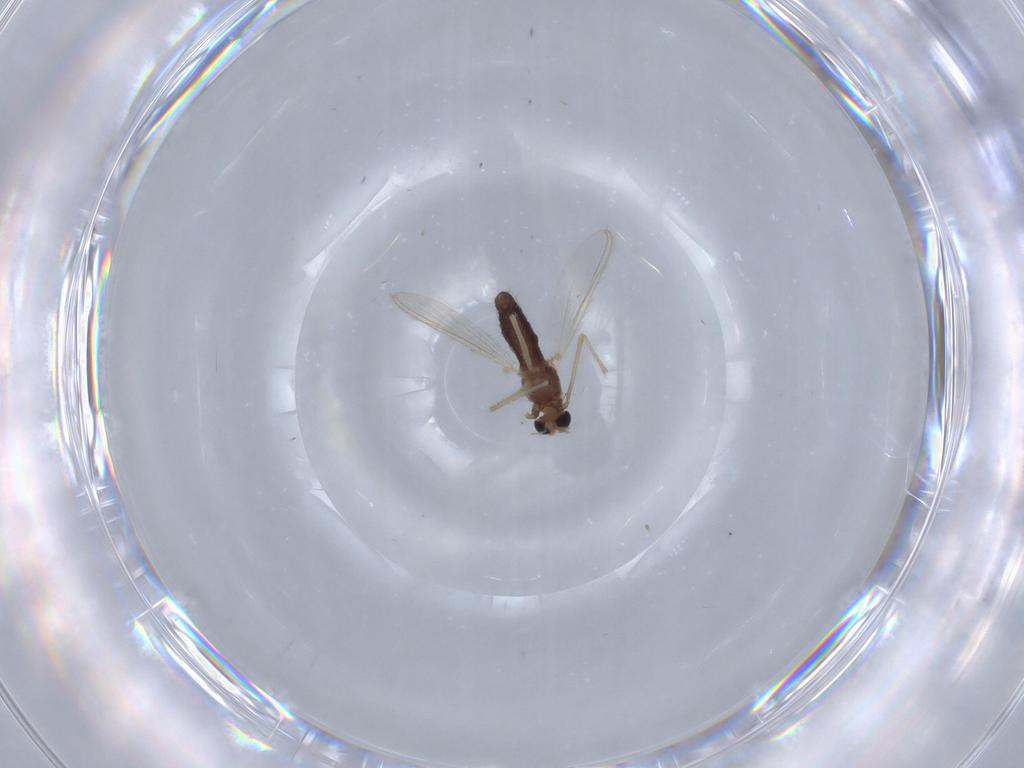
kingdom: Animalia
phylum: Arthropoda
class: Insecta
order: Diptera
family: Chironomidae
